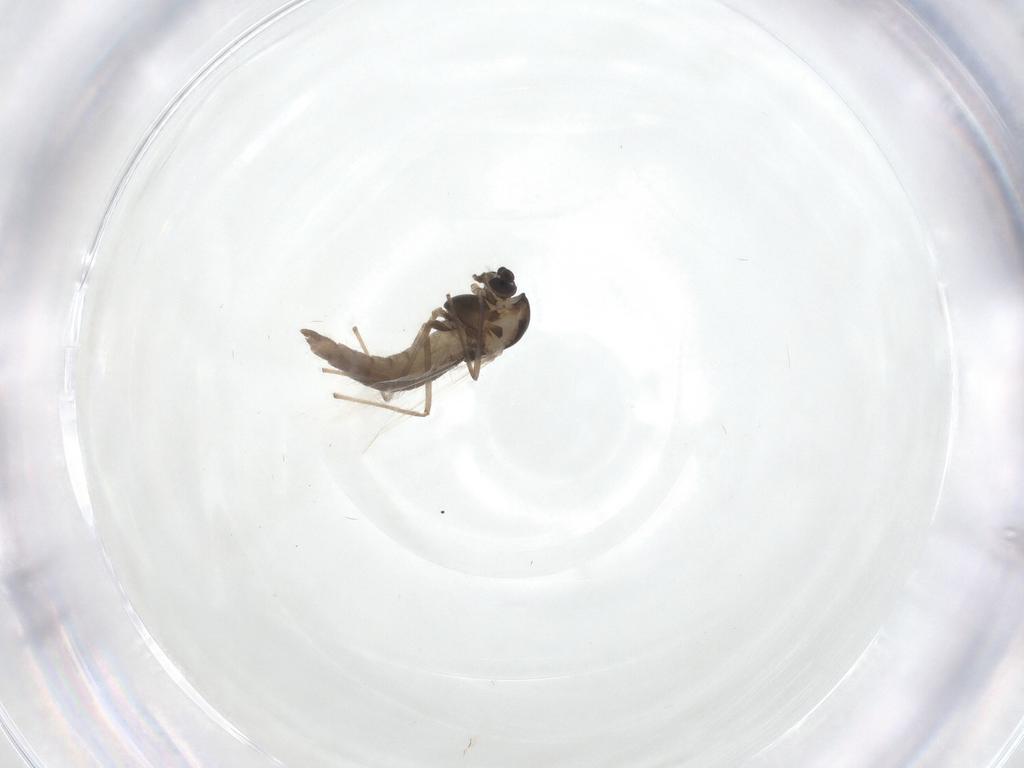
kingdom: Animalia
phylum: Arthropoda
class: Insecta
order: Diptera
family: Chironomidae
